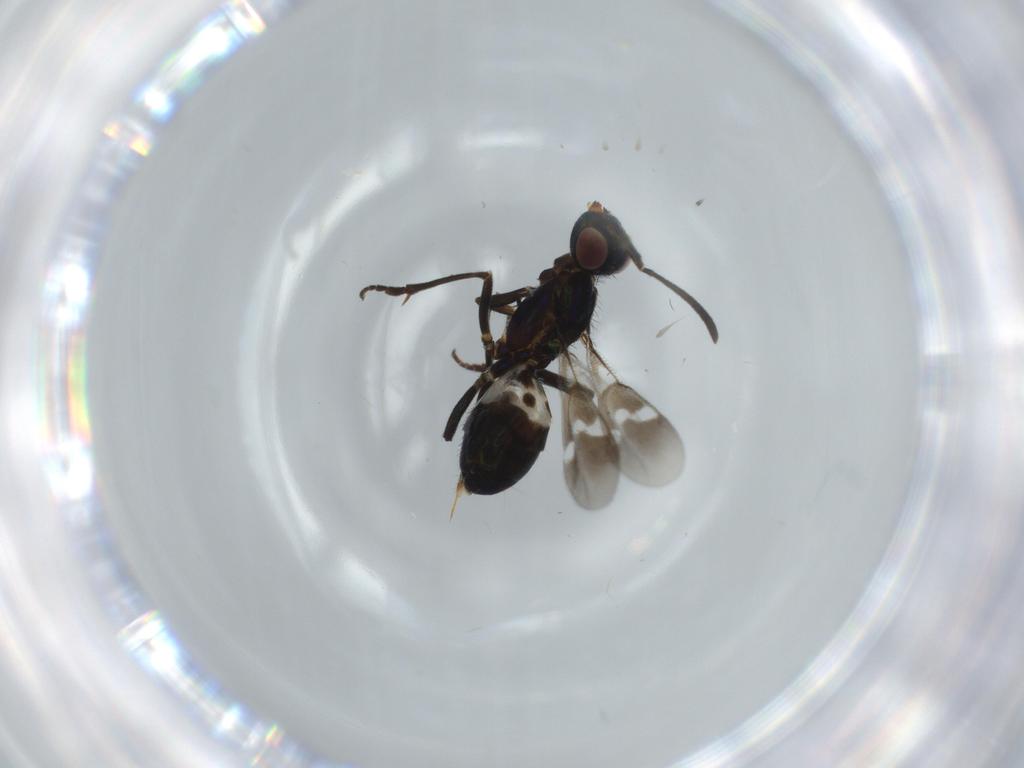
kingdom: Animalia
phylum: Arthropoda
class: Insecta
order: Hymenoptera
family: Eupelmidae
